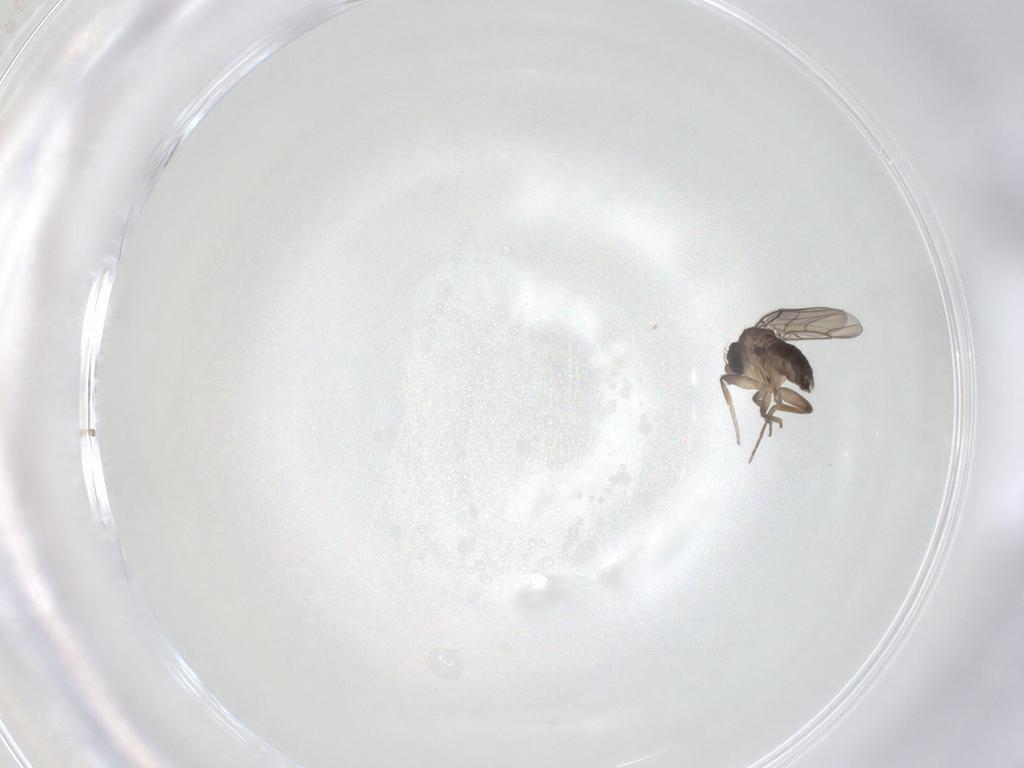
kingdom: Animalia
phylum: Arthropoda
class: Insecta
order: Diptera
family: Phoridae
